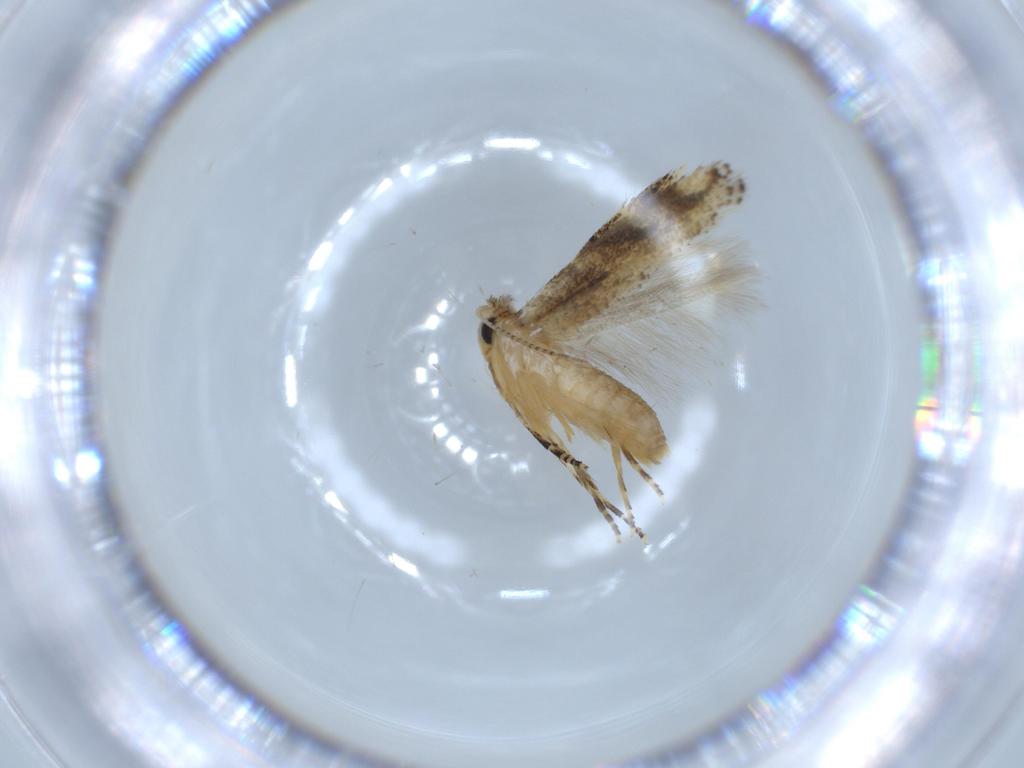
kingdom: Animalia
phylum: Arthropoda
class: Insecta
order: Lepidoptera
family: Bucculatricidae
